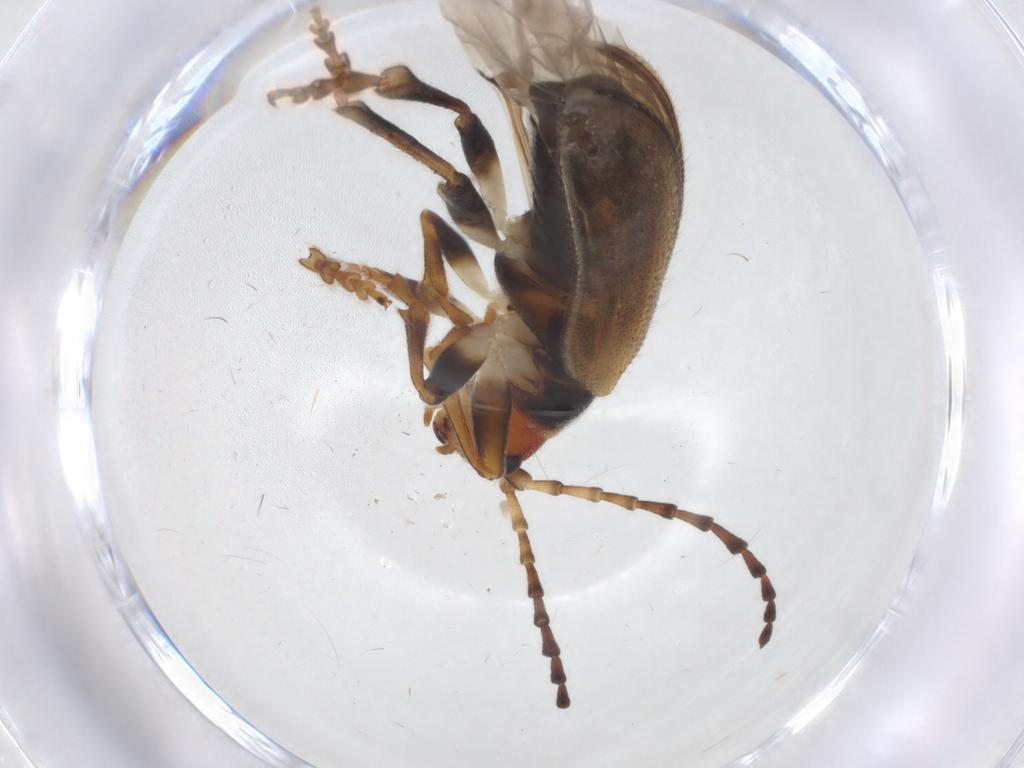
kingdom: Animalia
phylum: Arthropoda
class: Insecta
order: Coleoptera
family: Chrysomelidae
